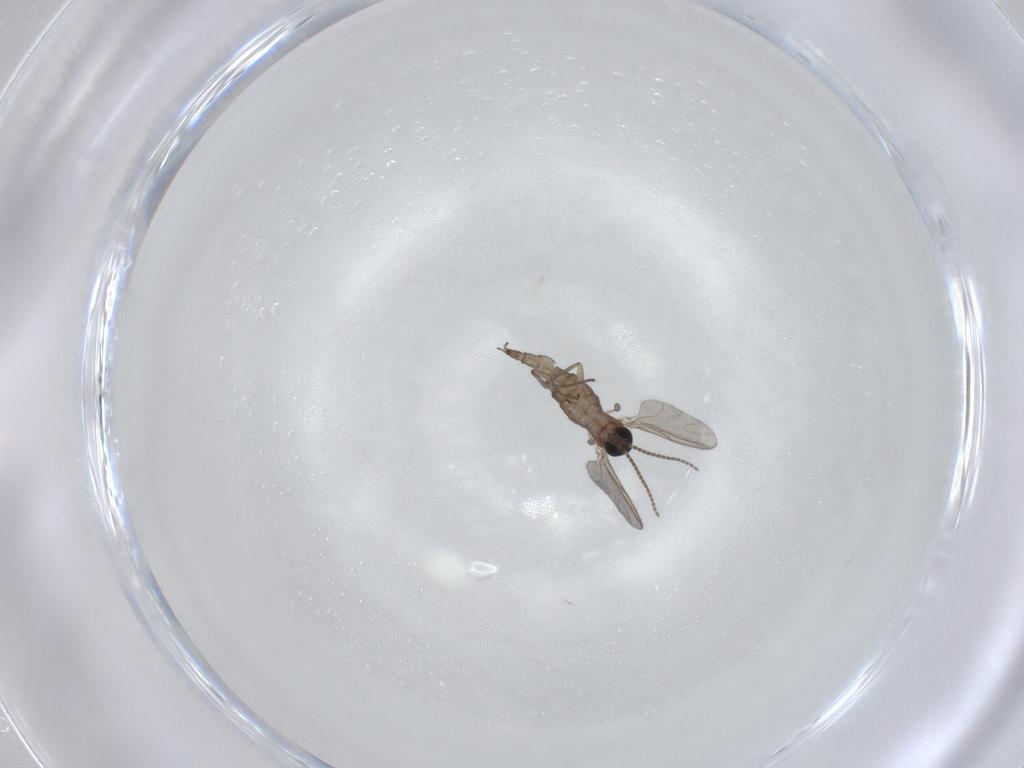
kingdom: Animalia
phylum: Arthropoda
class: Insecta
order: Diptera
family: Sciaridae
